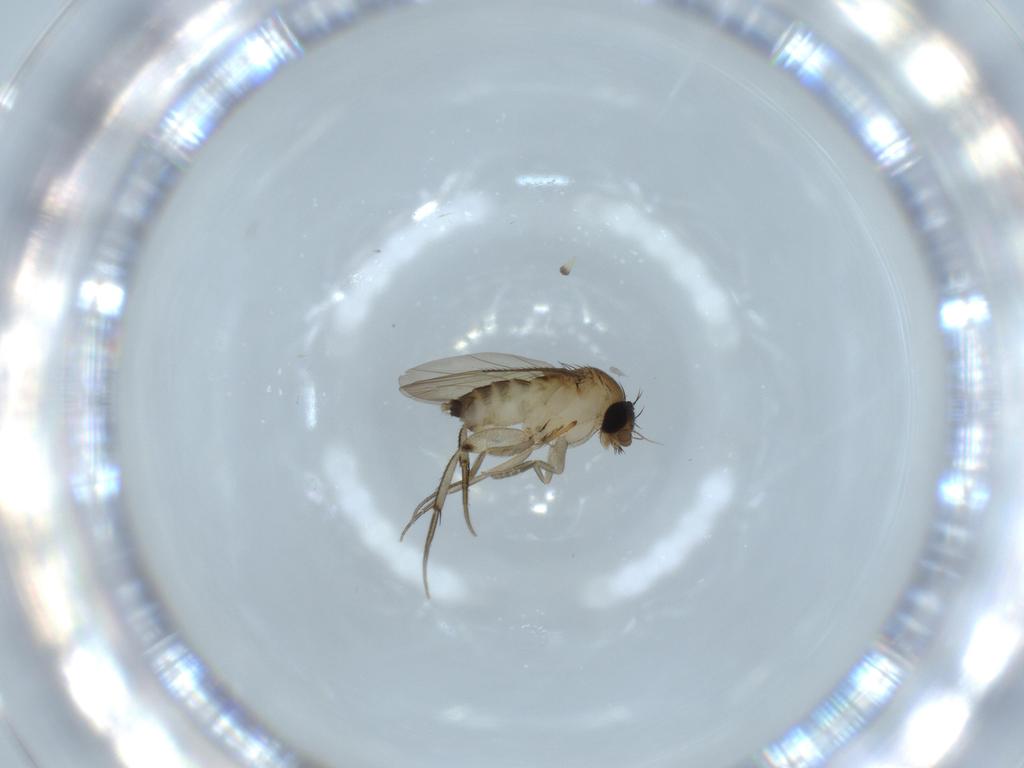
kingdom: Animalia
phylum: Arthropoda
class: Insecta
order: Diptera
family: Phoridae
